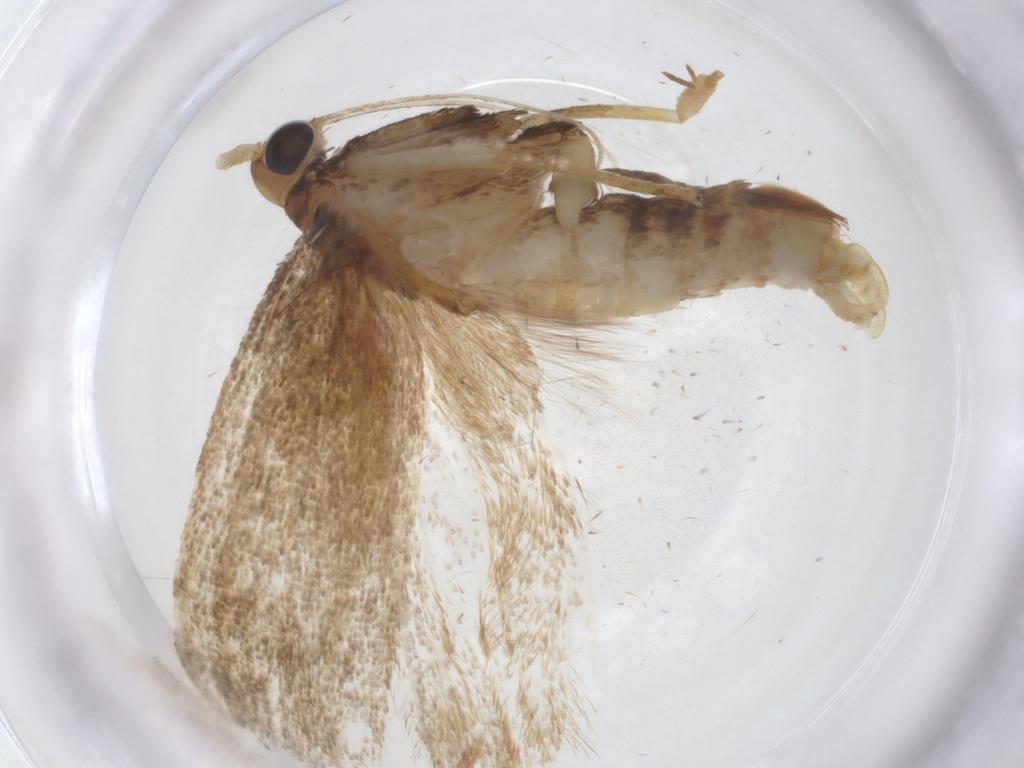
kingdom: Animalia
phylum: Arthropoda
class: Insecta
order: Lepidoptera
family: Lecithoceridae
